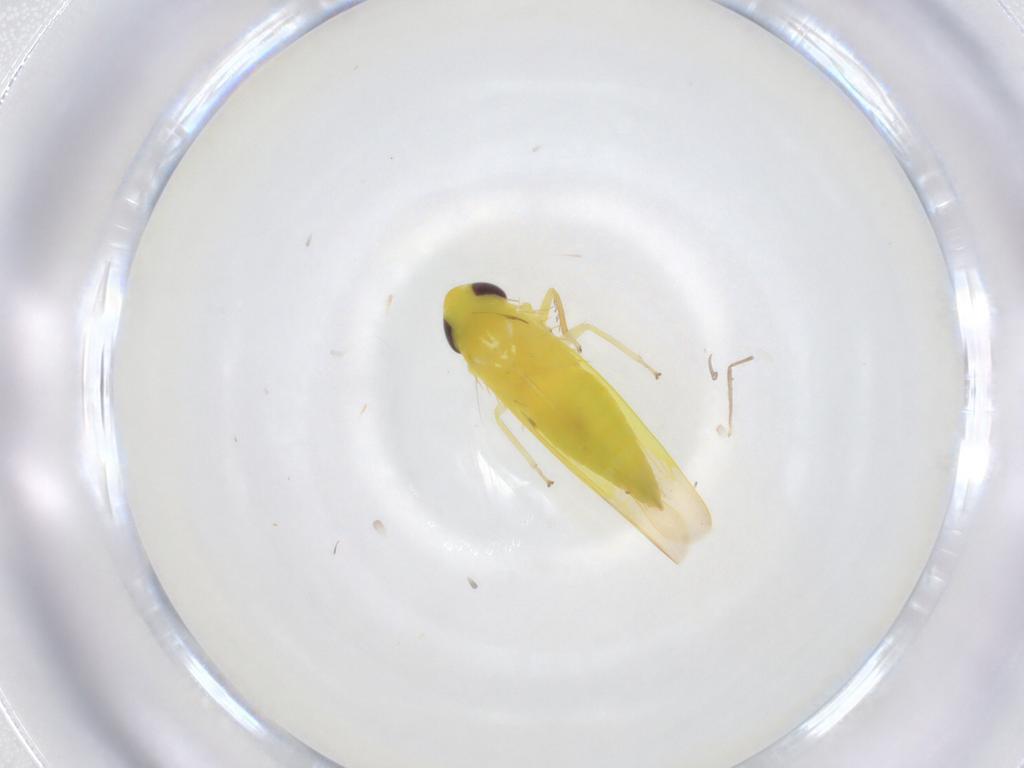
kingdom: Animalia
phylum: Arthropoda
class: Insecta
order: Hemiptera
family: Cicadellidae
